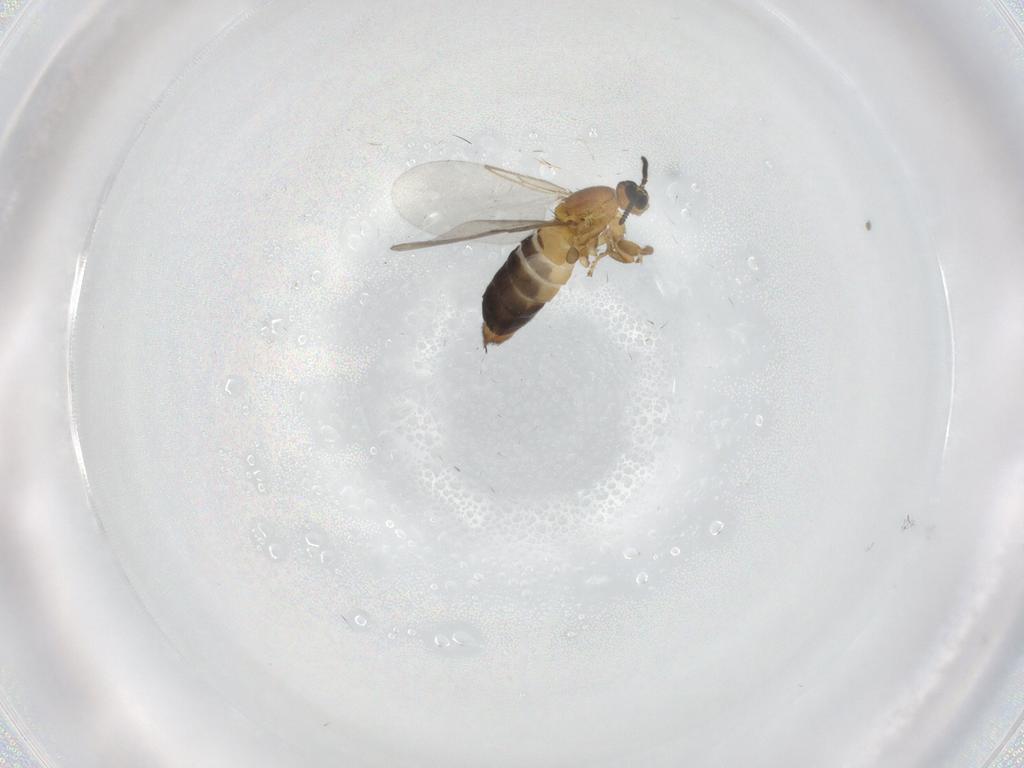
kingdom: Animalia
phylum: Arthropoda
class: Insecta
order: Diptera
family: Scatopsidae
